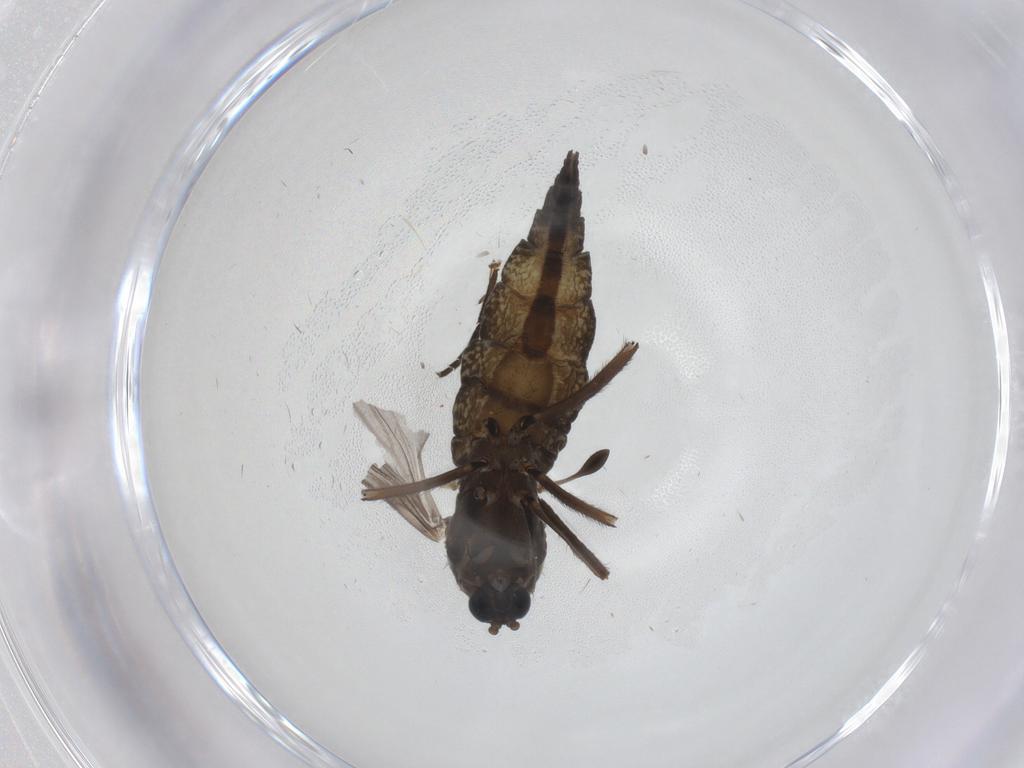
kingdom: Animalia
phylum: Arthropoda
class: Insecta
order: Diptera
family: Sciaridae
